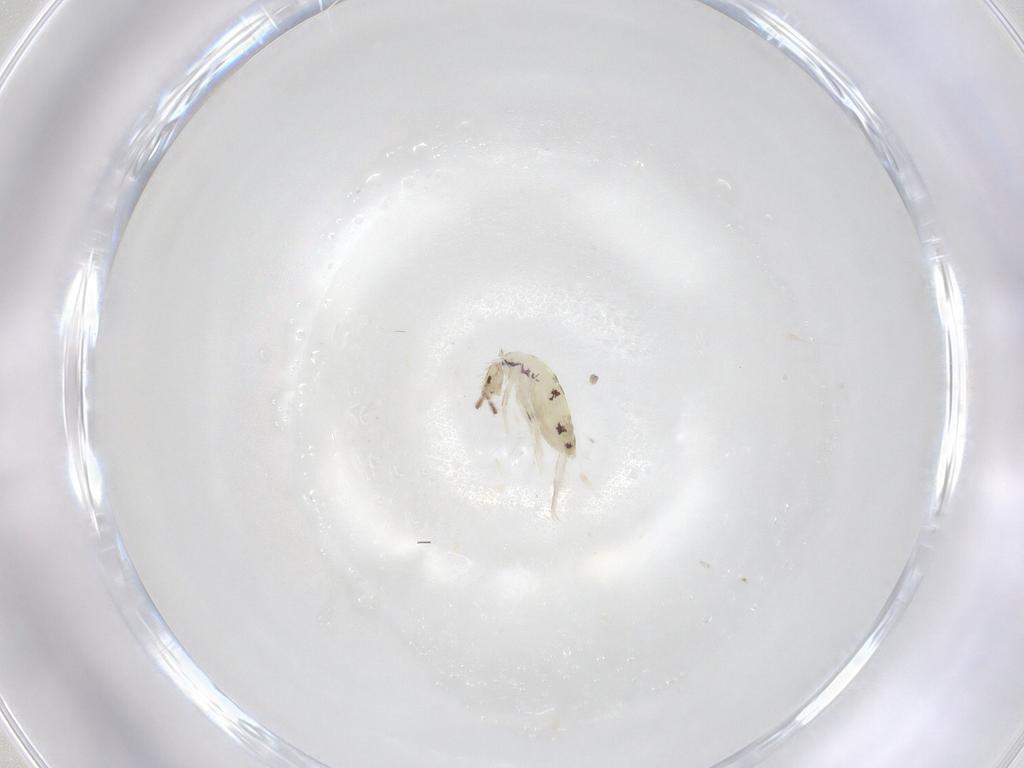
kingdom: Animalia
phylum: Arthropoda
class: Collembola
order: Entomobryomorpha
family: Entomobryidae
